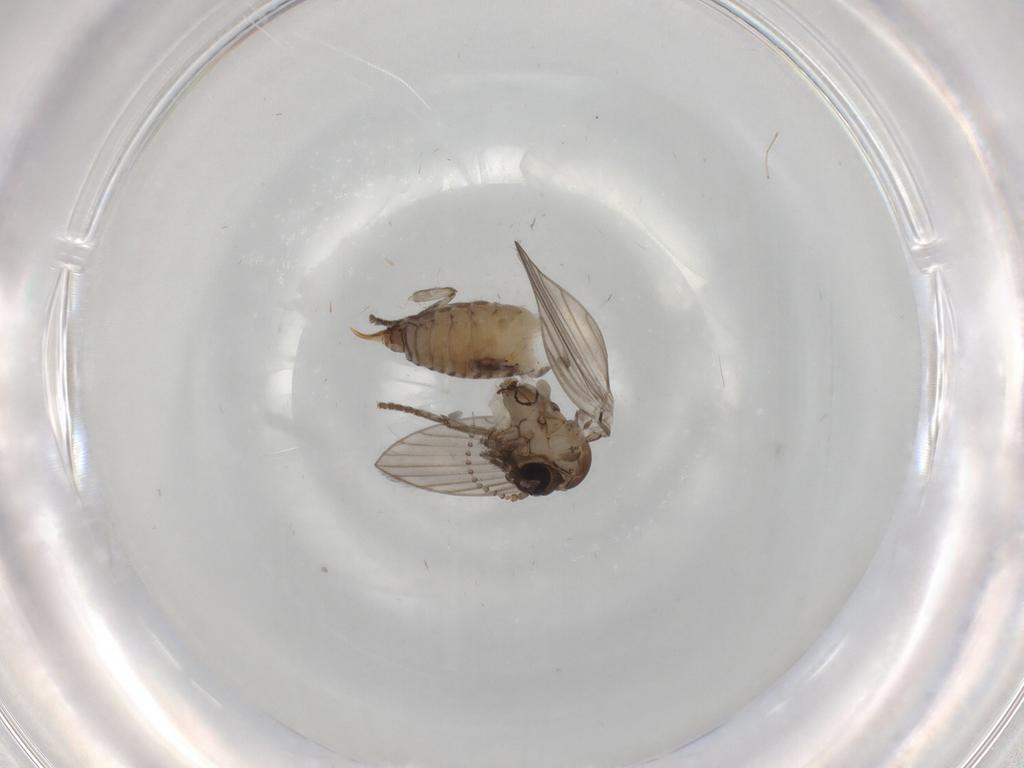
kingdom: Animalia
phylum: Arthropoda
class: Insecta
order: Diptera
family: Psychodidae
